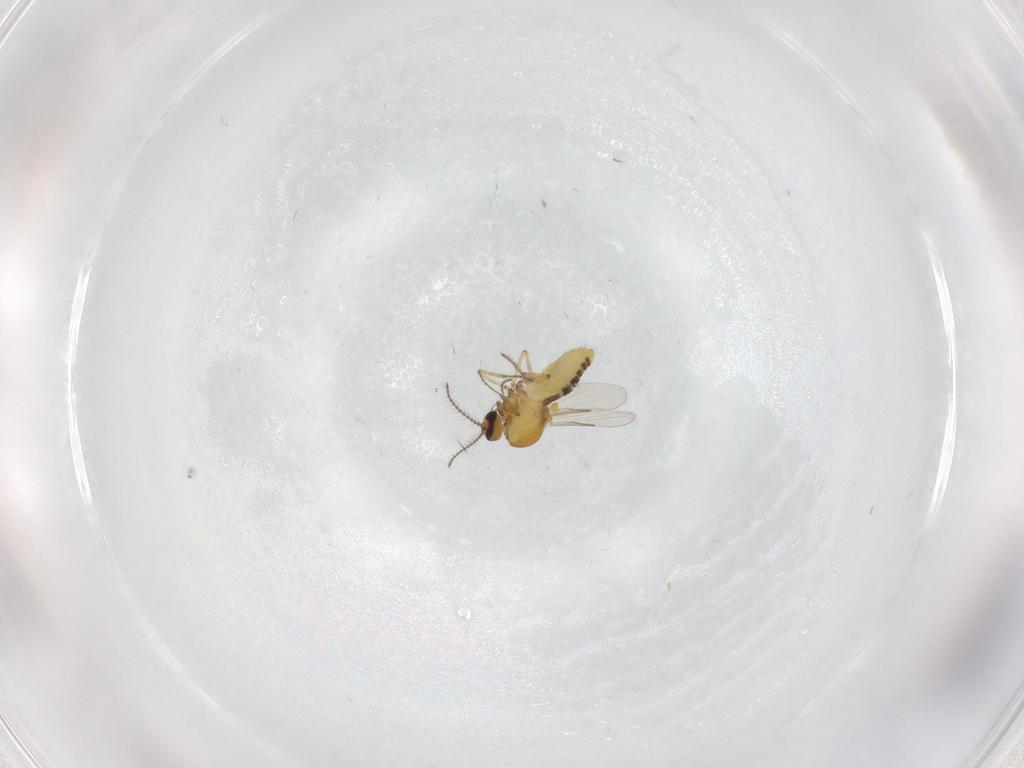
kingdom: Animalia
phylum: Arthropoda
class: Insecta
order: Diptera
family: Ceratopogonidae
